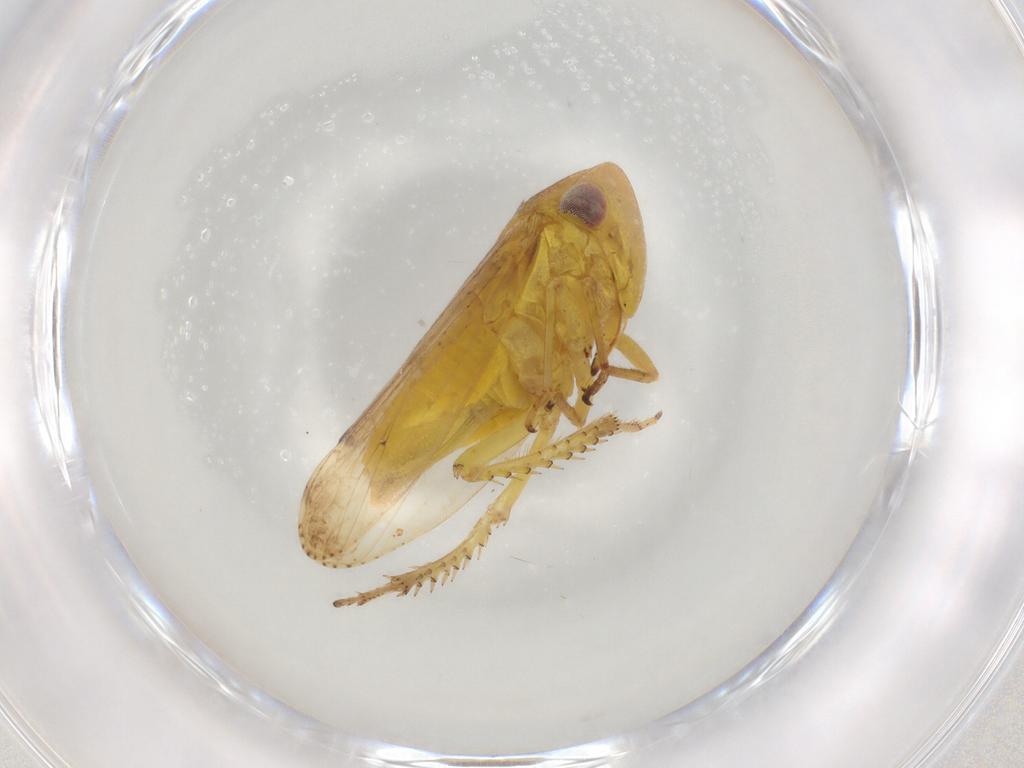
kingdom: Animalia
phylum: Arthropoda
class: Insecta
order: Hemiptera
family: Cicadellidae
